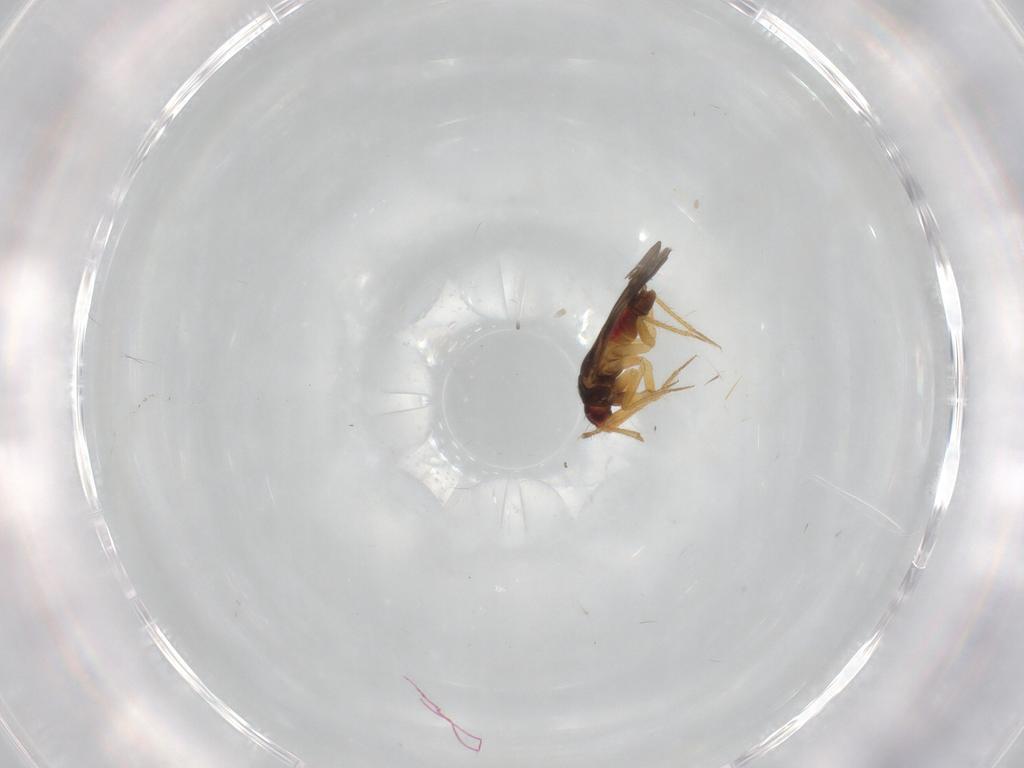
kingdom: Animalia
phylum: Arthropoda
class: Insecta
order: Hemiptera
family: Ceratocombidae
